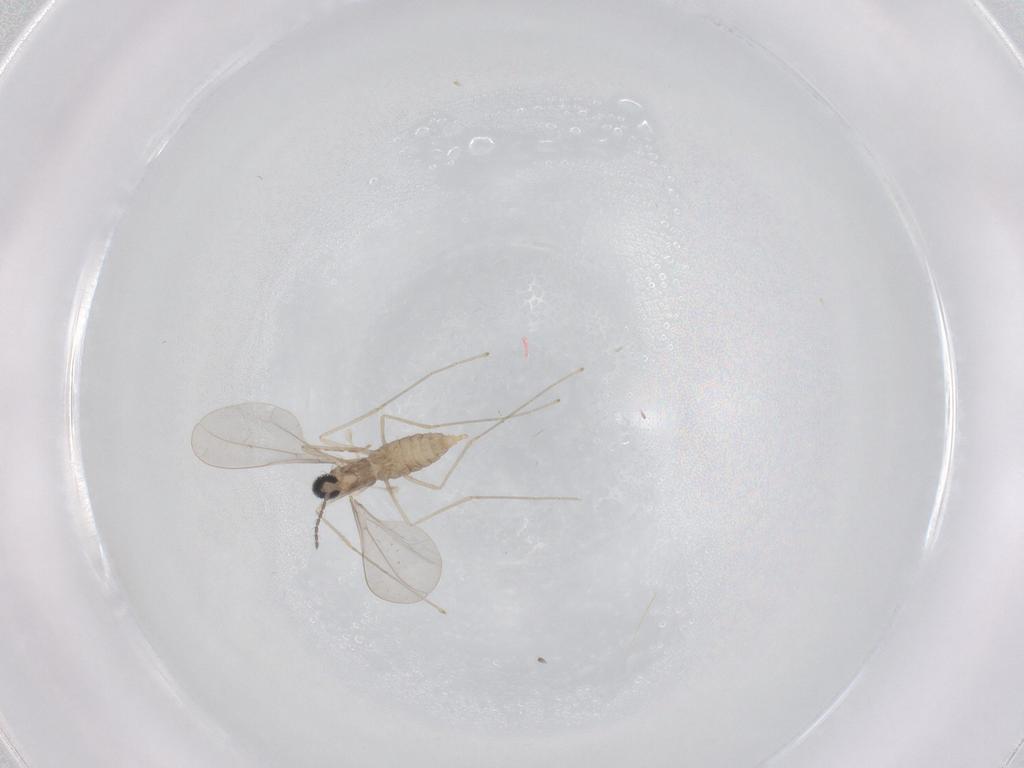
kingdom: Animalia
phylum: Arthropoda
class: Insecta
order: Diptera
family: Cecidomyiidae
